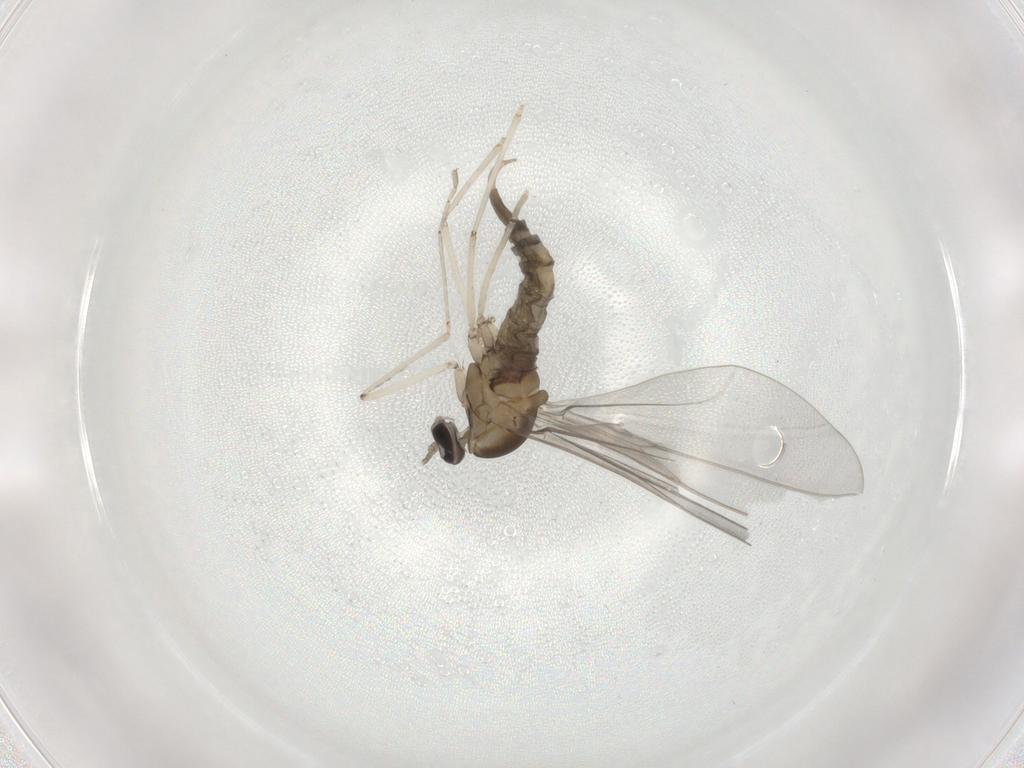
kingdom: Animalia
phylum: Arthropoda
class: Insecta
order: Diptera
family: Cecidomyiidae
